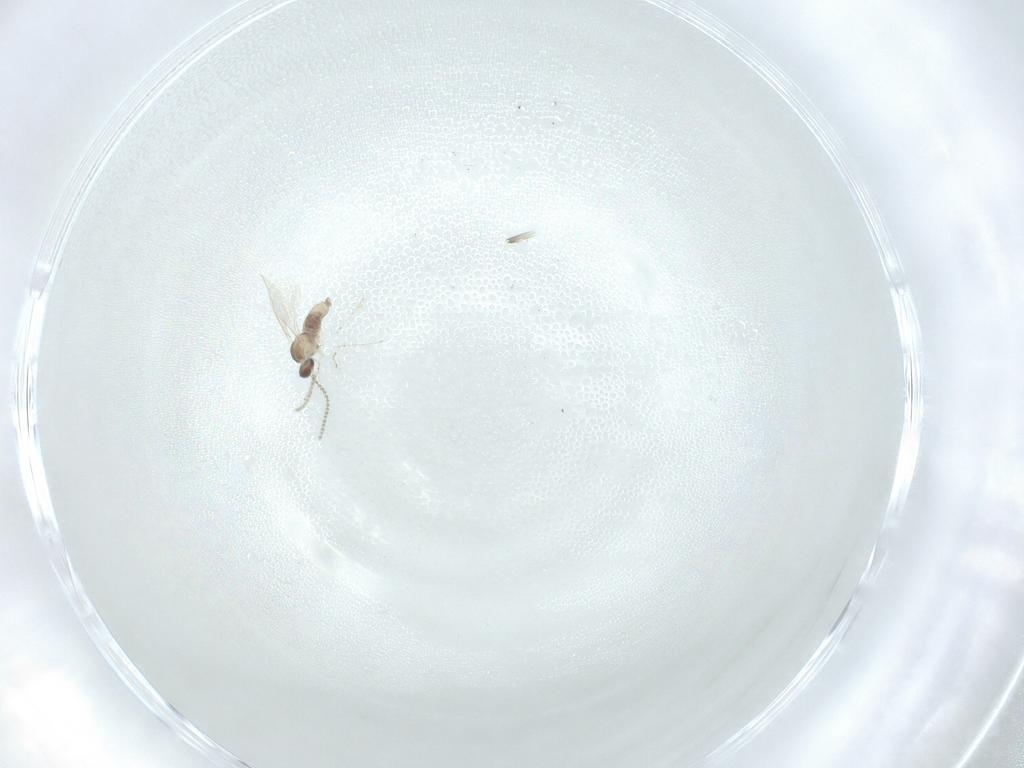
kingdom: Animalia
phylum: Arthropoda
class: Insecta
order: Diptera
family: Cecidomyiidae
